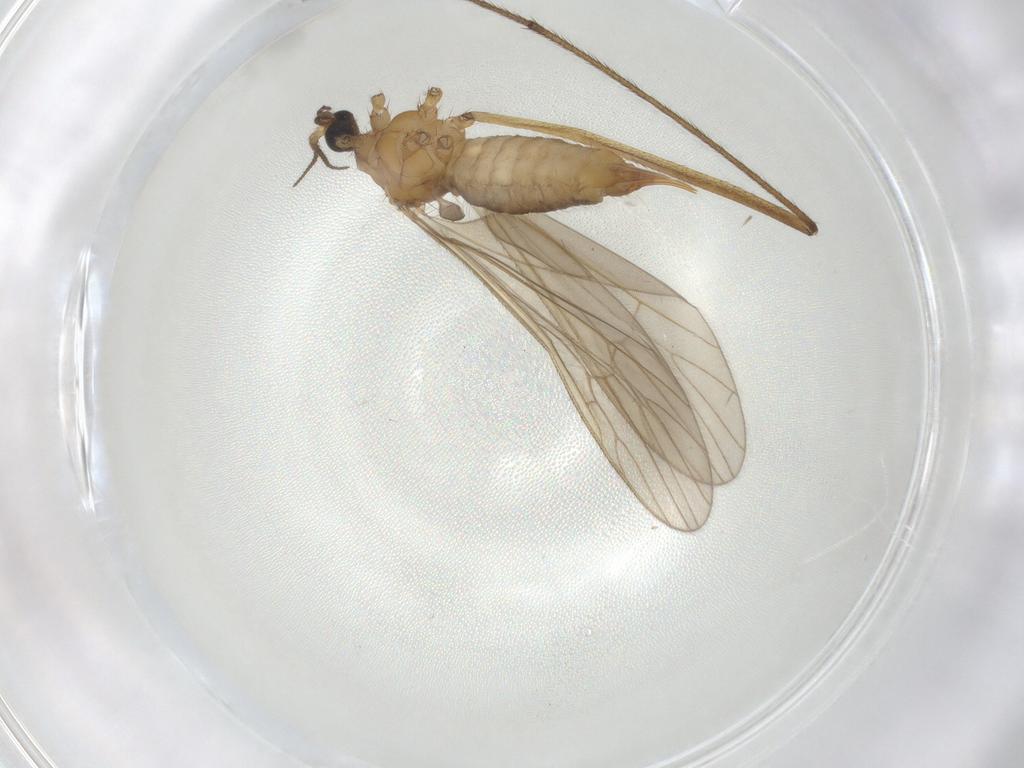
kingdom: Animalia
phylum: Arthropoda
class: Insecta
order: Diptera
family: Limoniidae
